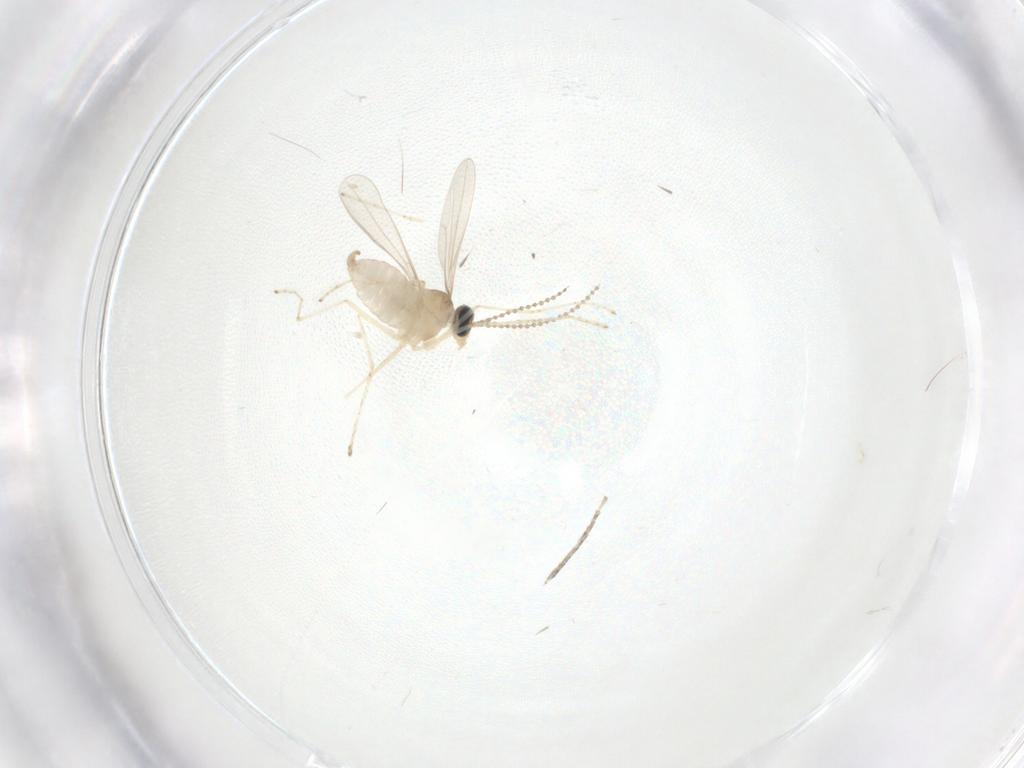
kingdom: Animalia
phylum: Arthropoda
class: Insecta
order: Diptera
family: Cecidomyiidae
